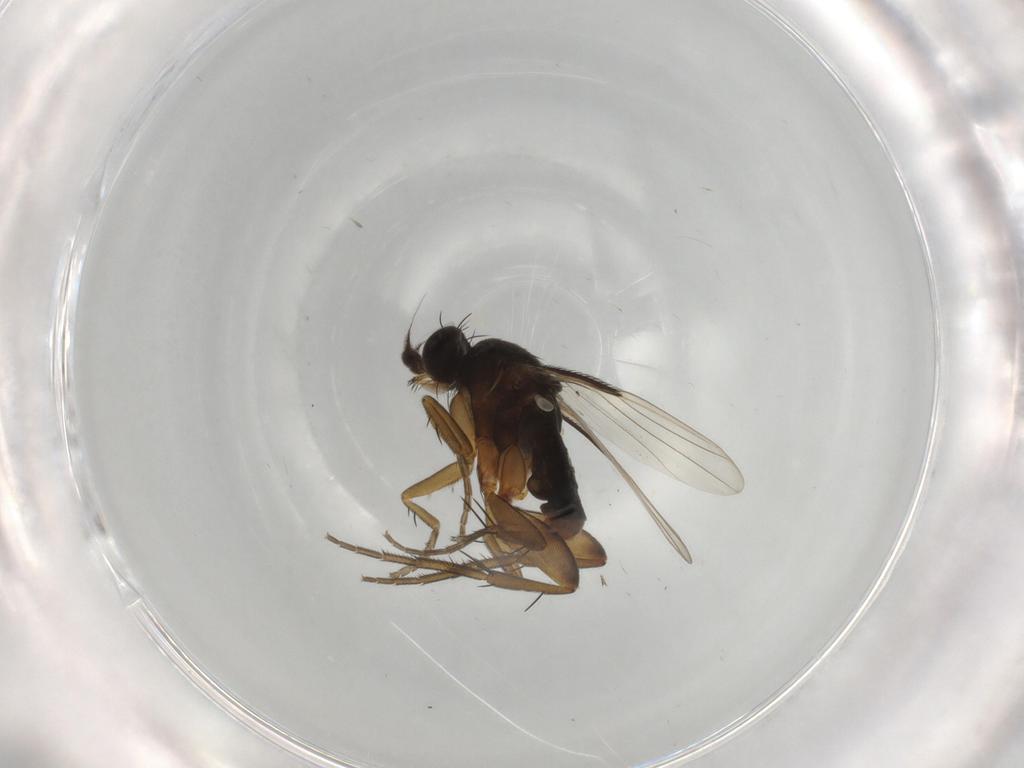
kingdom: Animalia
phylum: Arthropoda
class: Insecta
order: Diptera
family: Phoridae
